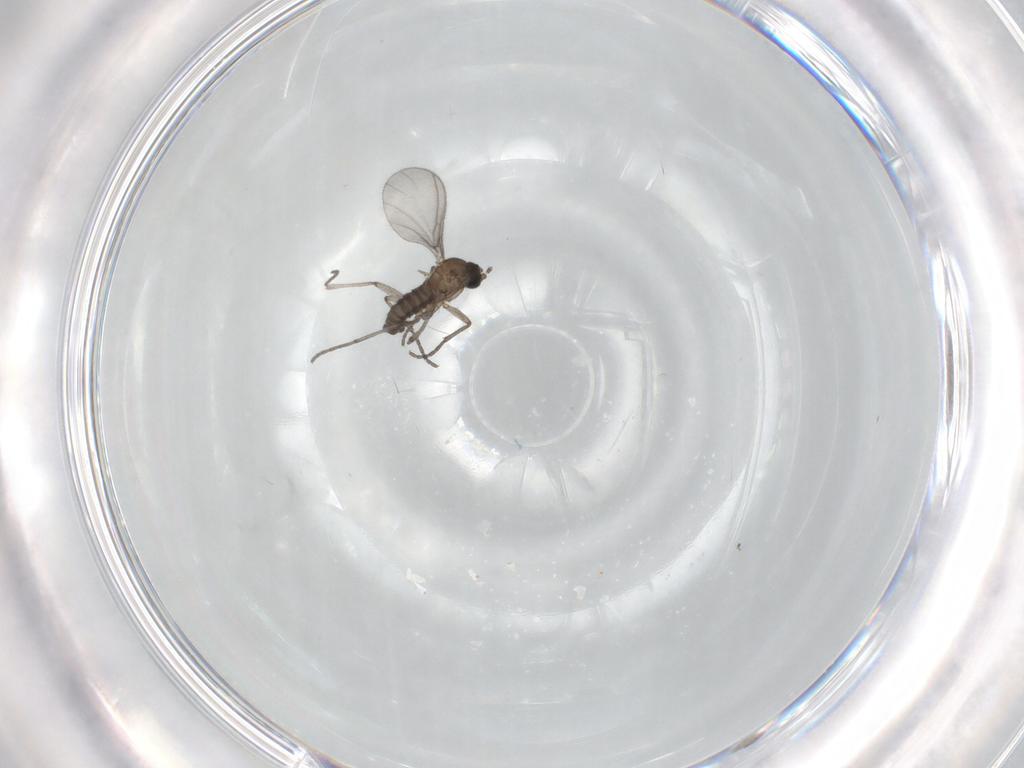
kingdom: Animalia
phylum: Arthropoda
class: Insecta
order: Diptera
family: Sciaridae
